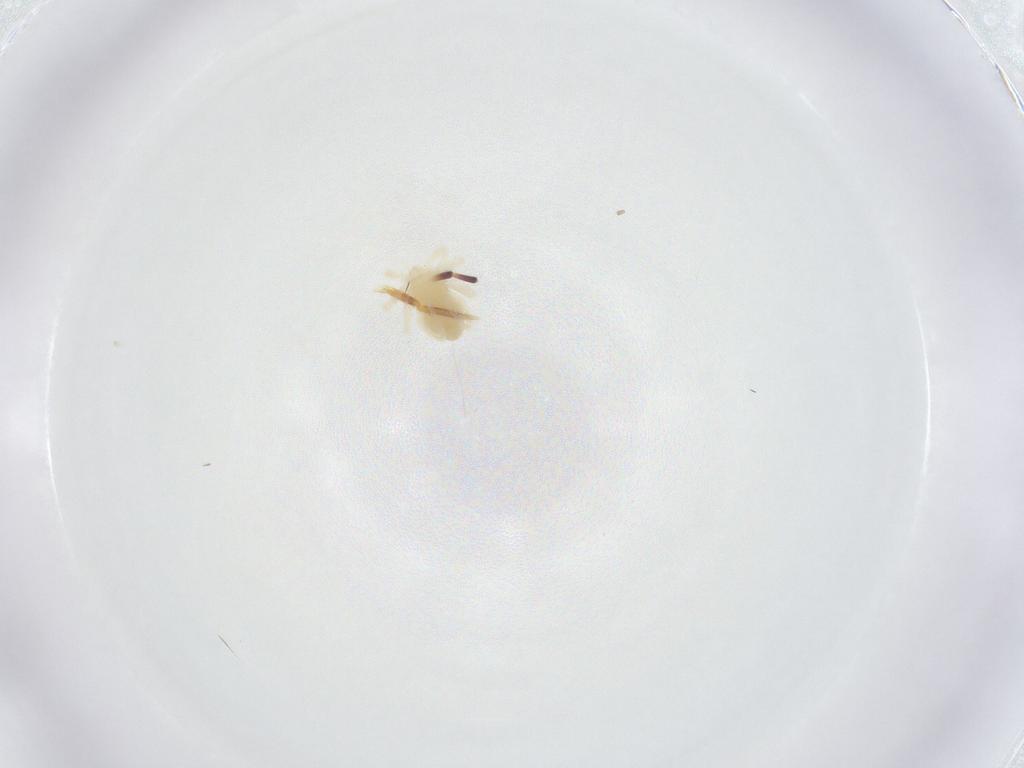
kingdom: Animalia
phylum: Arthropoda
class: Arachnida
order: Trombidiformes
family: Anystidae
